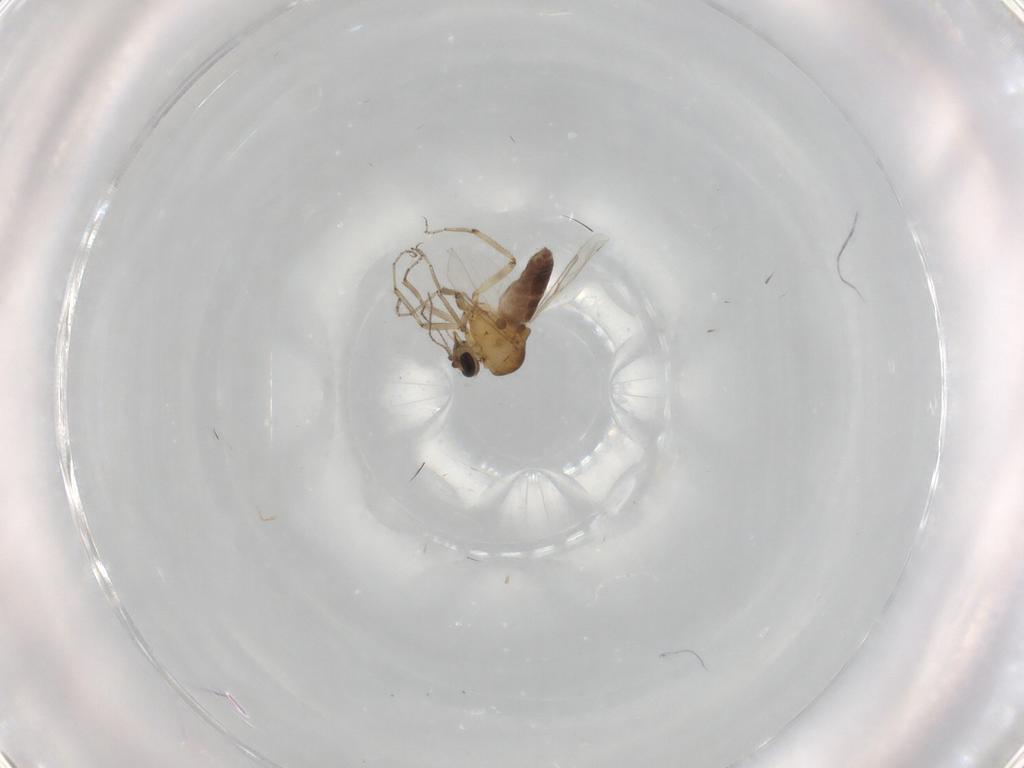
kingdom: Animalia
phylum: Arthropoda
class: Insecta
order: Diptera
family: Ceratopogonidae
